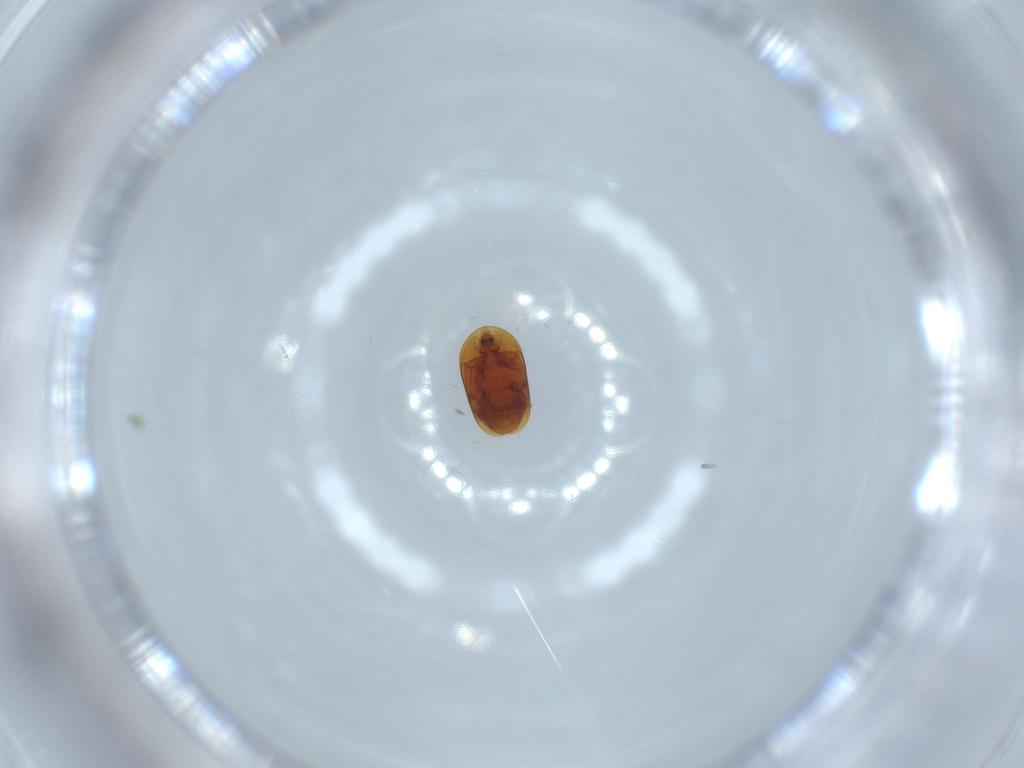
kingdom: Animalia
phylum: Arthropoda
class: Insecta
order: Coleoptera
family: Corylophidae
